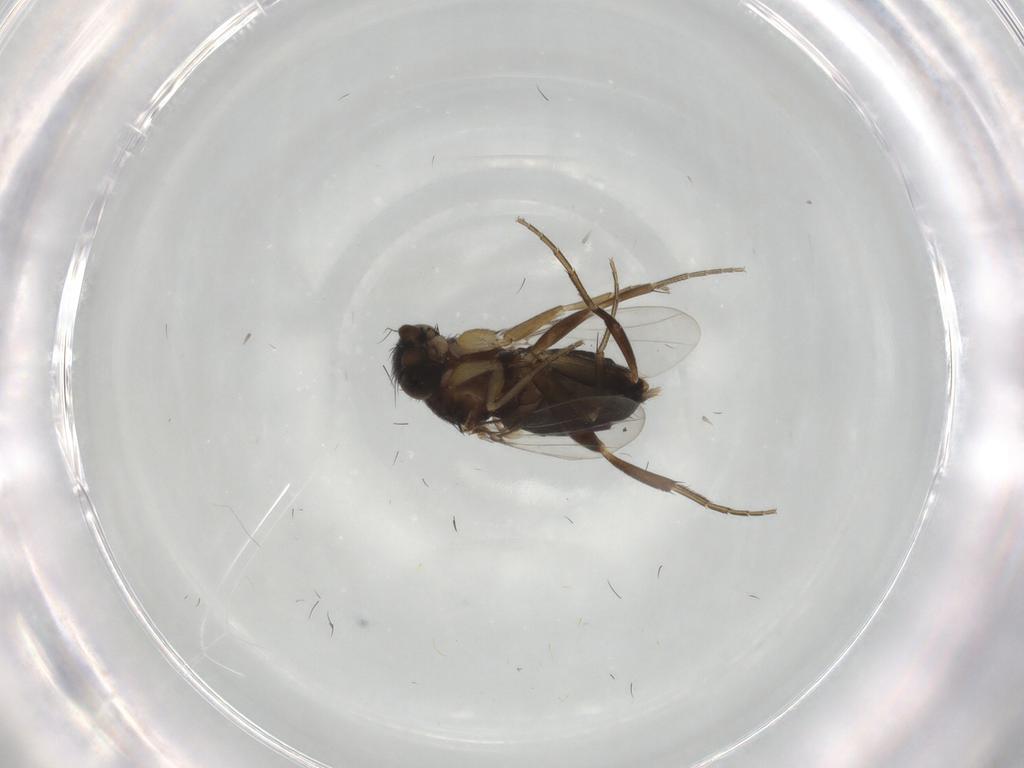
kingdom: Animalia
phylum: Arthropoda
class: Insecta
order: Diptera
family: Phoridae
